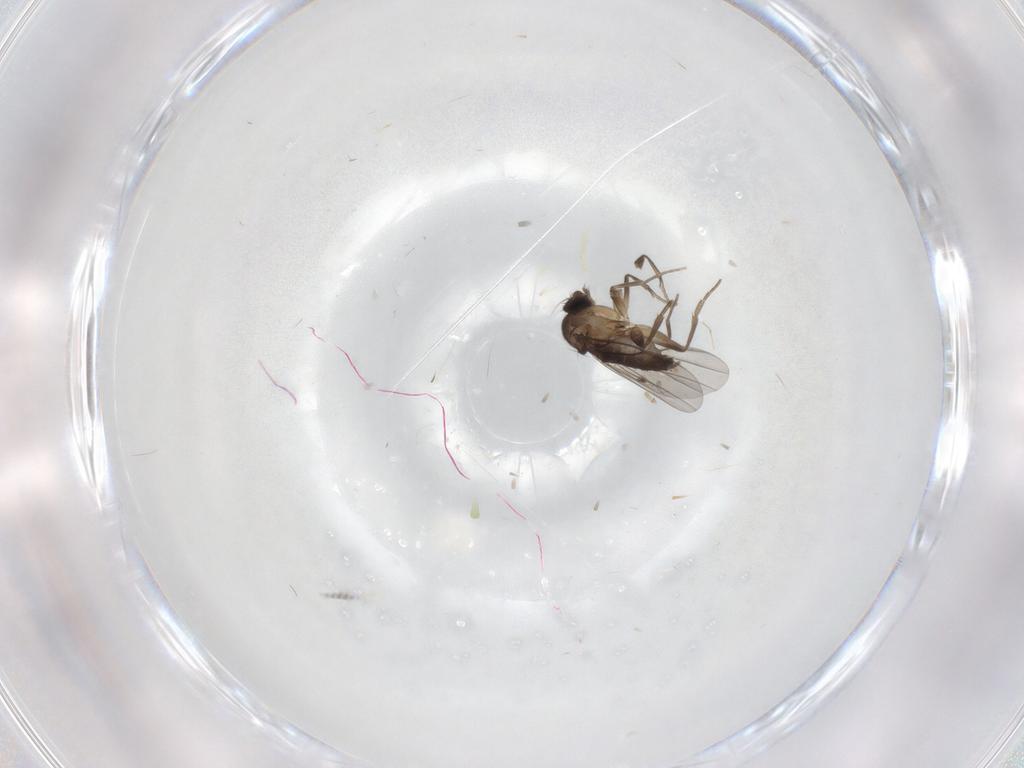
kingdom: Animalia
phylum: Arthropoda
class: Insecta
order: Diptera
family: Phoridae
